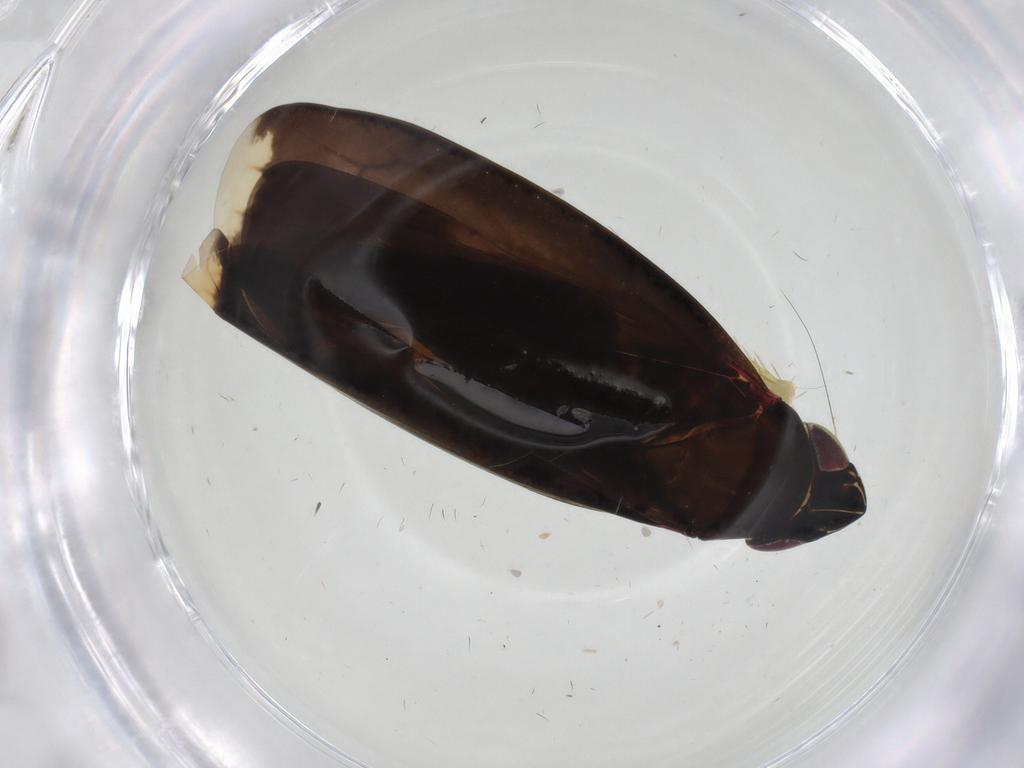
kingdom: Animalia
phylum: Arthropoda
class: Insecta
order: Hemiptera
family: Cicadellidae
